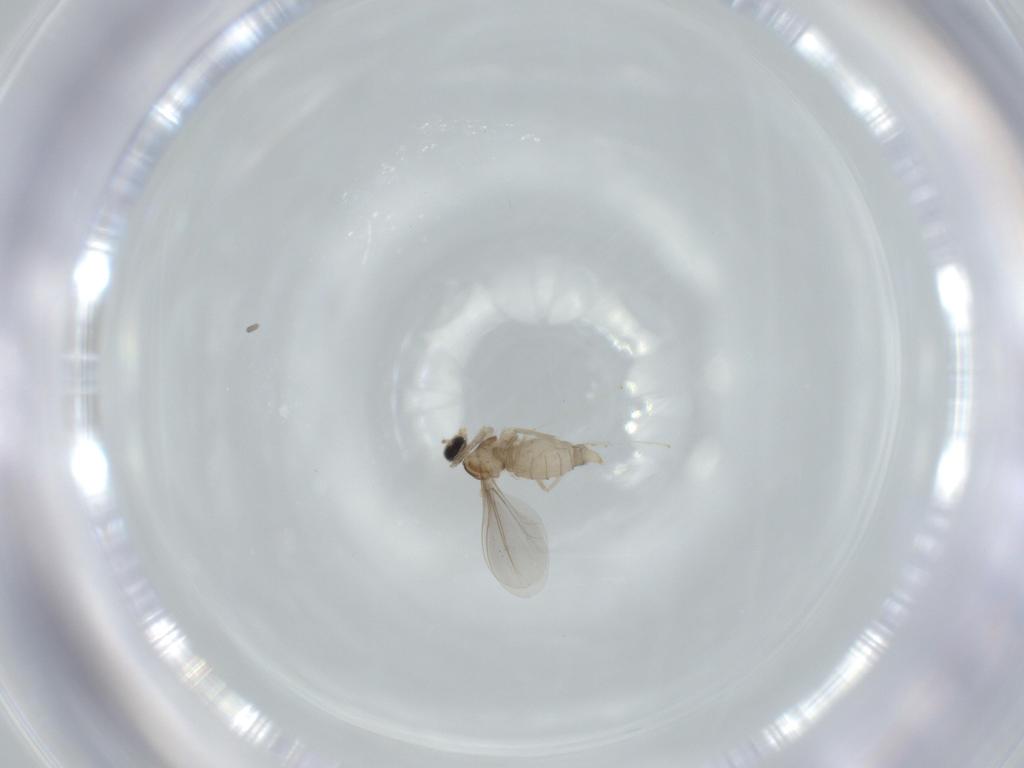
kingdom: Animalia
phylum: Arthropoda
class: Insecta
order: Diptera
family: Cecidomyiidae
